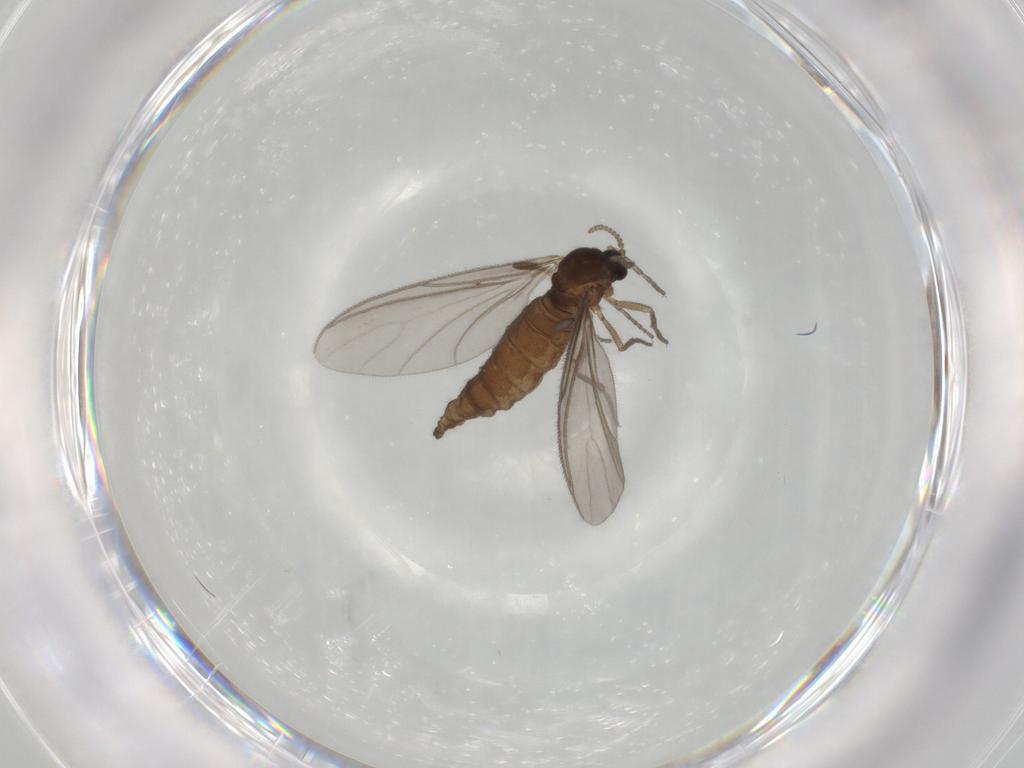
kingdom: Animalia
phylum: Arthropoda
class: Insecta
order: Diptera
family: Sciaridae
